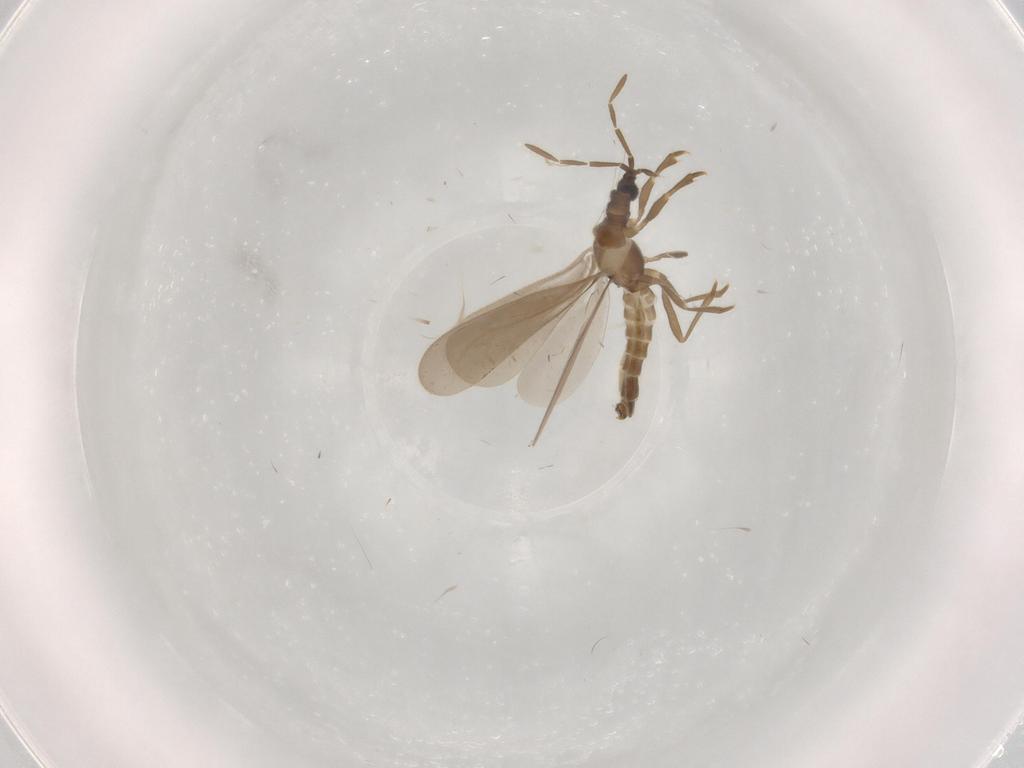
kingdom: Animalia
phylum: Arthropoda
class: Insecta
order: Hemiptera
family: Enicocephalidae
